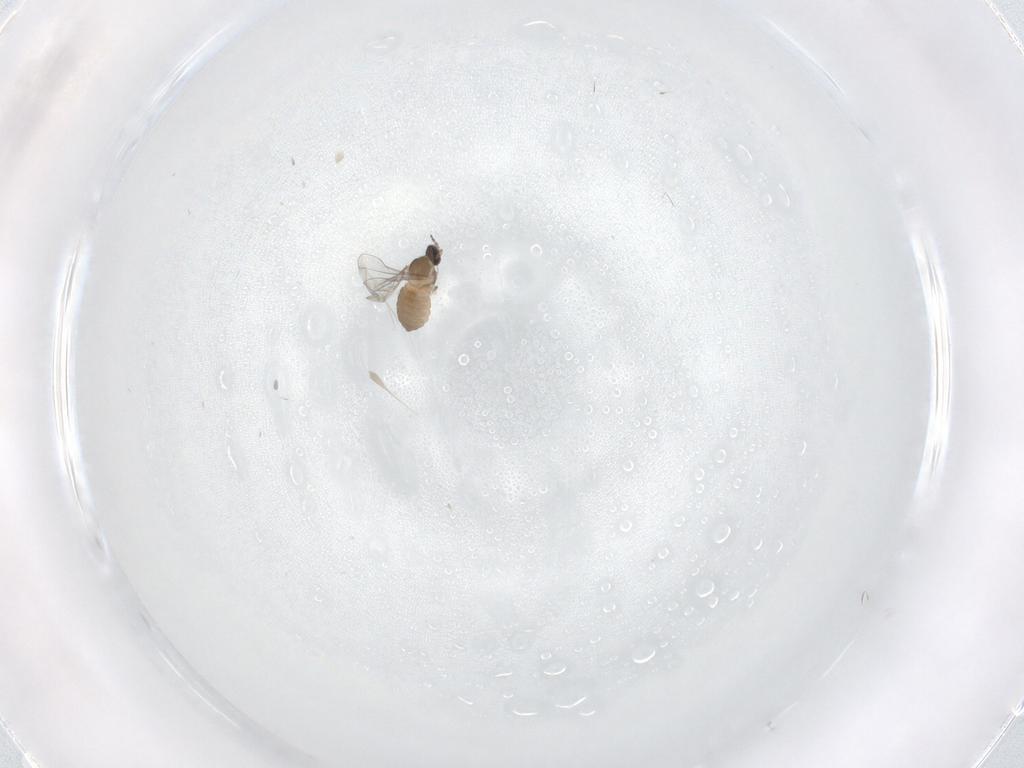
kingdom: Animalia
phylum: Arthropoda
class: Insecta
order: Diptera
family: Cecidomyiidae
